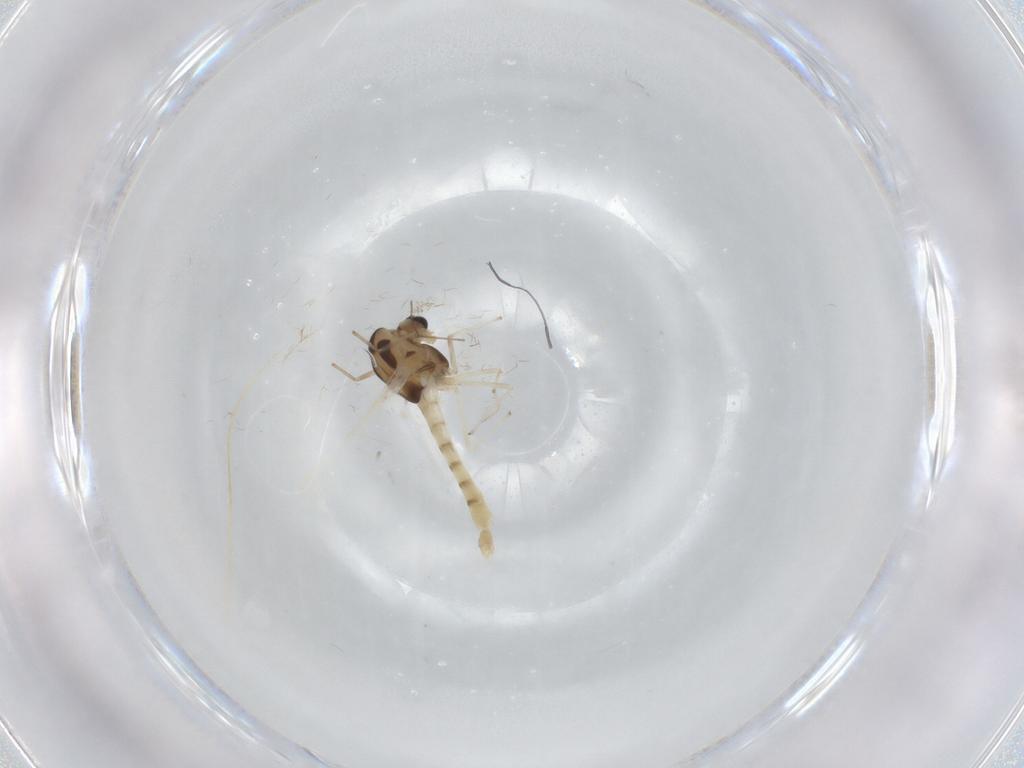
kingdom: Animalia
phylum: Arthropoda
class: Insecta
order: Diptera
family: Chironomidae
